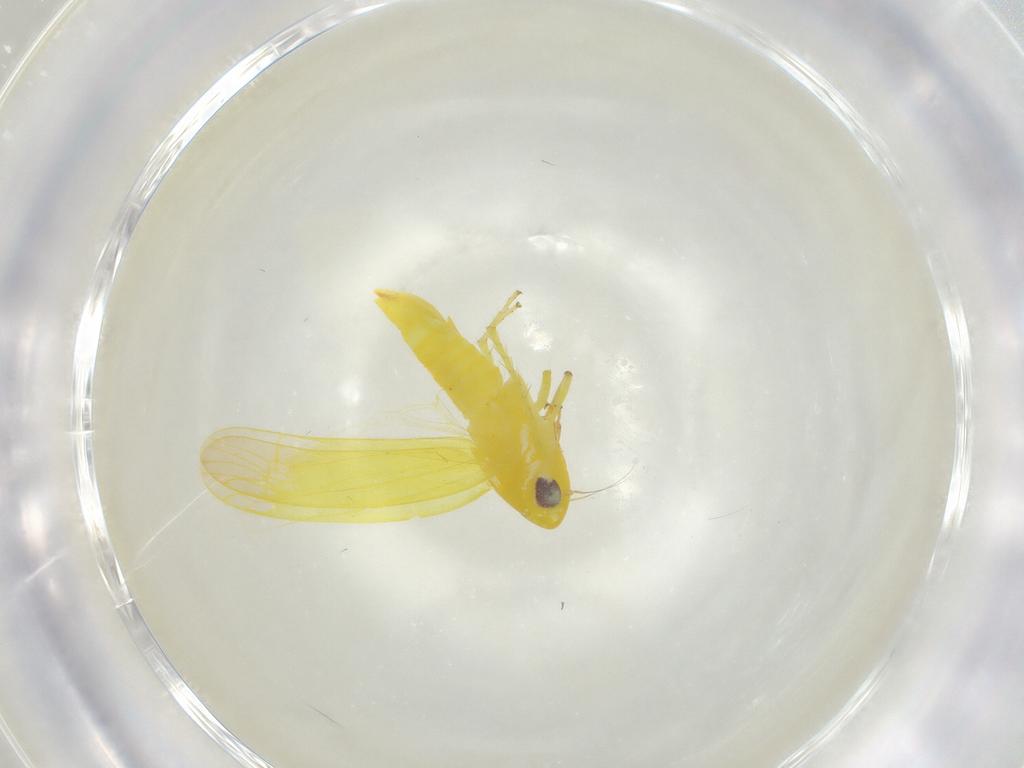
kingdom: Animalia
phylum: Arthropoda
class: Insecta
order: Hemiptera
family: Cicadellidae
